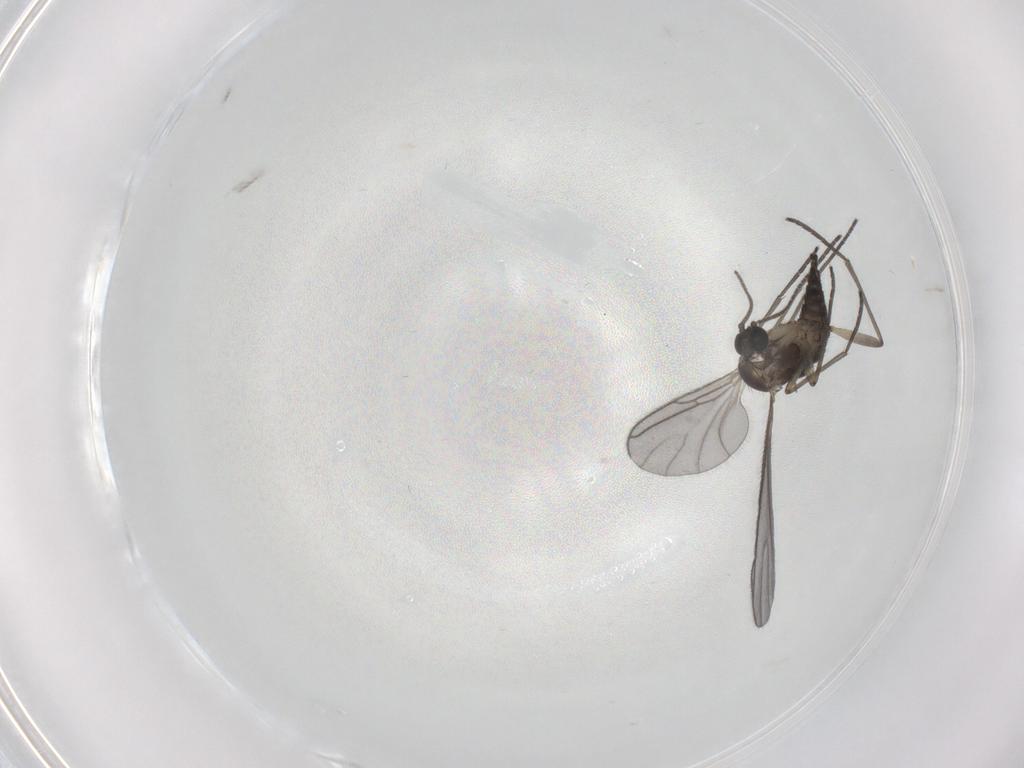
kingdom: Animalia
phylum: Arthropoda
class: Insecta
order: Diptera
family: Sciaridae
